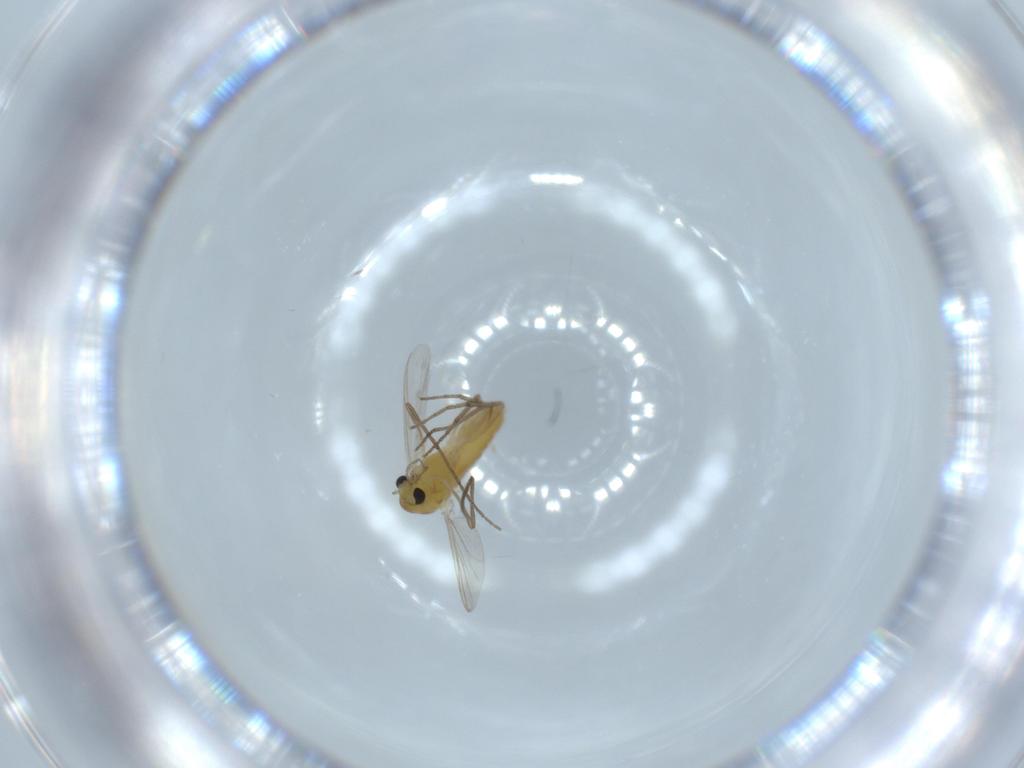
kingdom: Animalia
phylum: Arthropoda
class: Insecta
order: Diptera
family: Chironomidae
